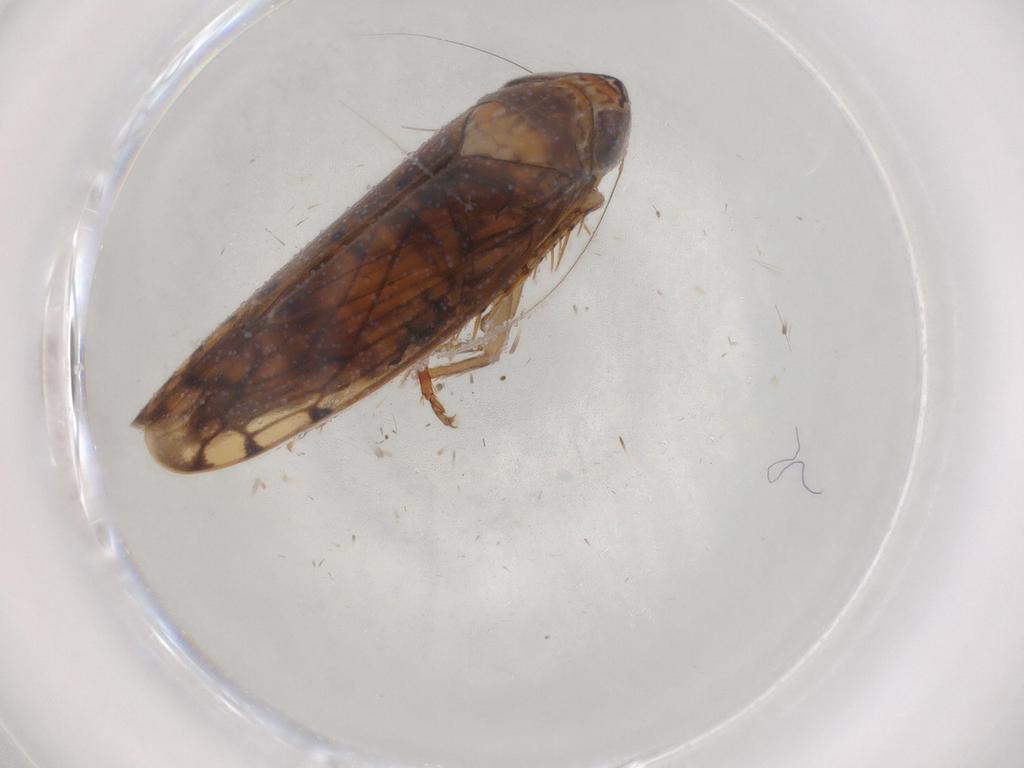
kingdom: Animalia
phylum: Arthropoda
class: Insecta
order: Hemiptera
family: Cicadellidae
